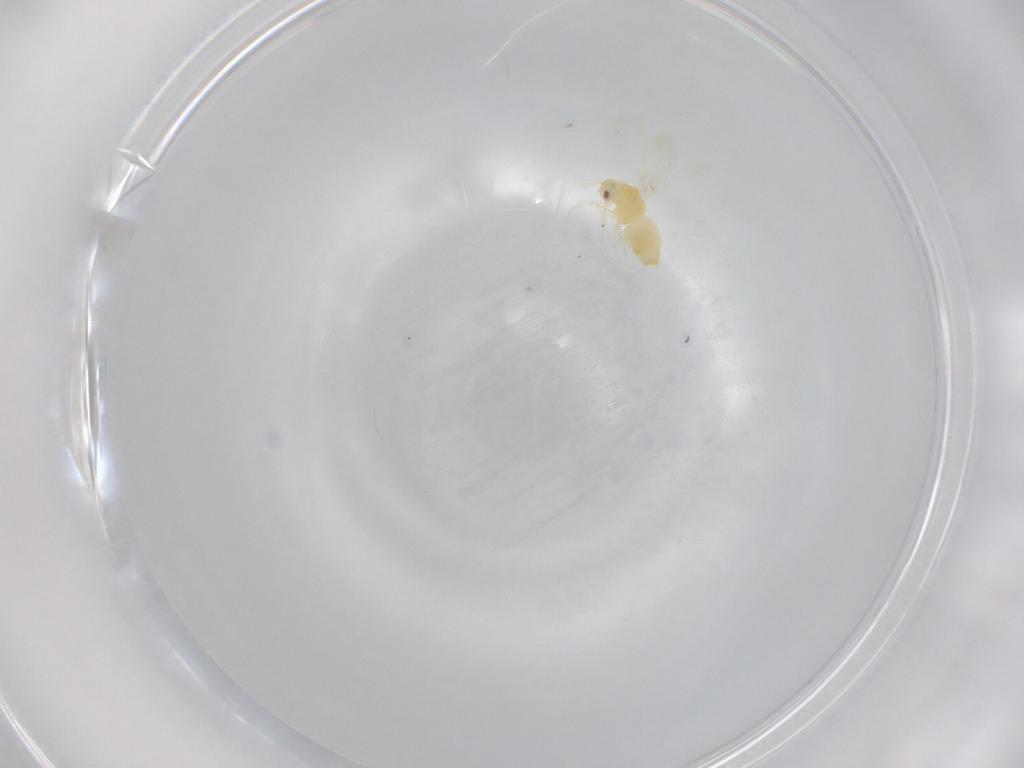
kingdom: Animalia
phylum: Arthropoda
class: Insecta
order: Hemiptera
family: Aleyrodidae
